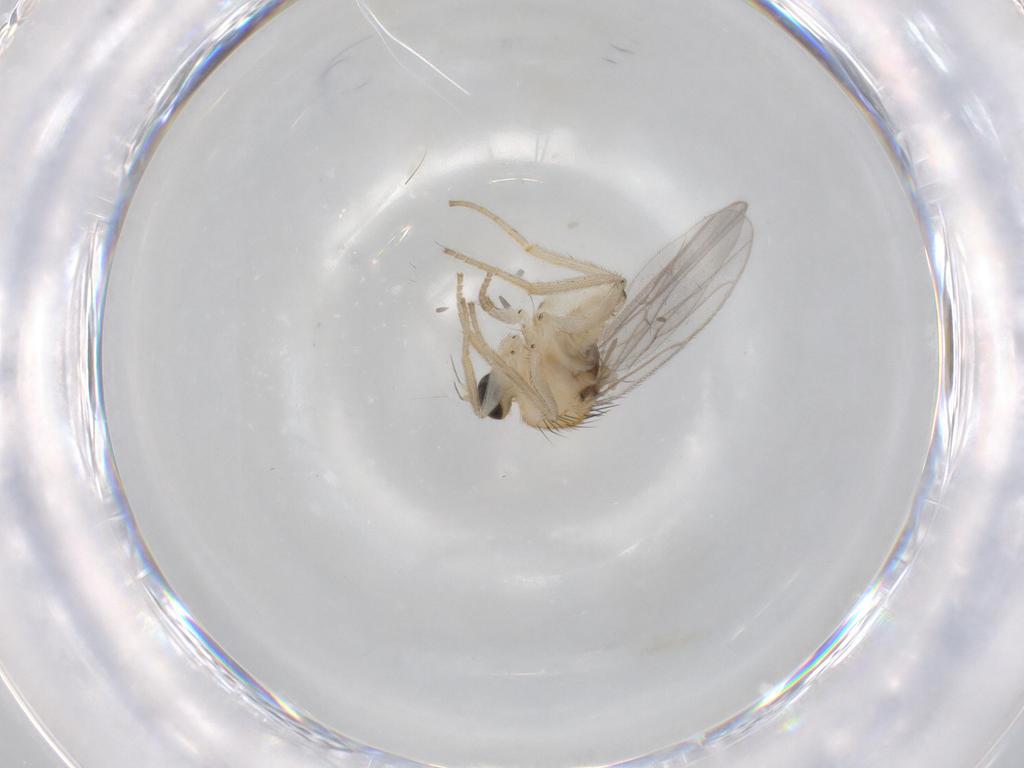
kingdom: Animalia
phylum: Arthropoda
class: Insecta
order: Diptera
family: Hybotidae
